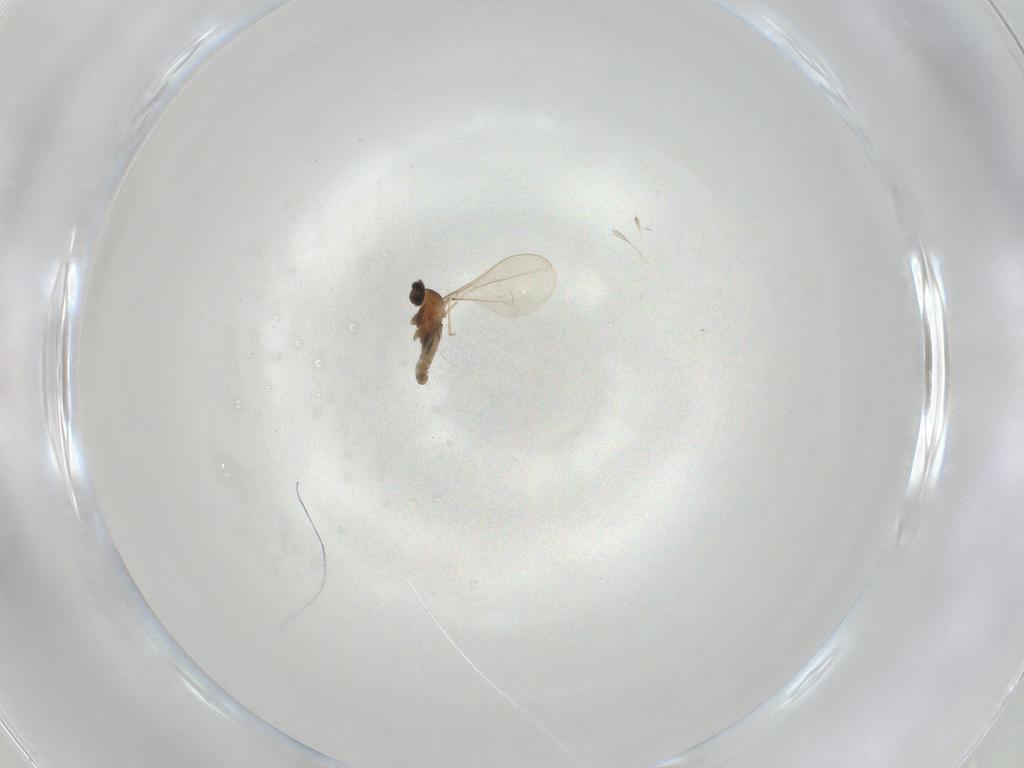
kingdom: Animalia
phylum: Arthropoda
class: Insecta
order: Diptera
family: Cecidomyiidae
